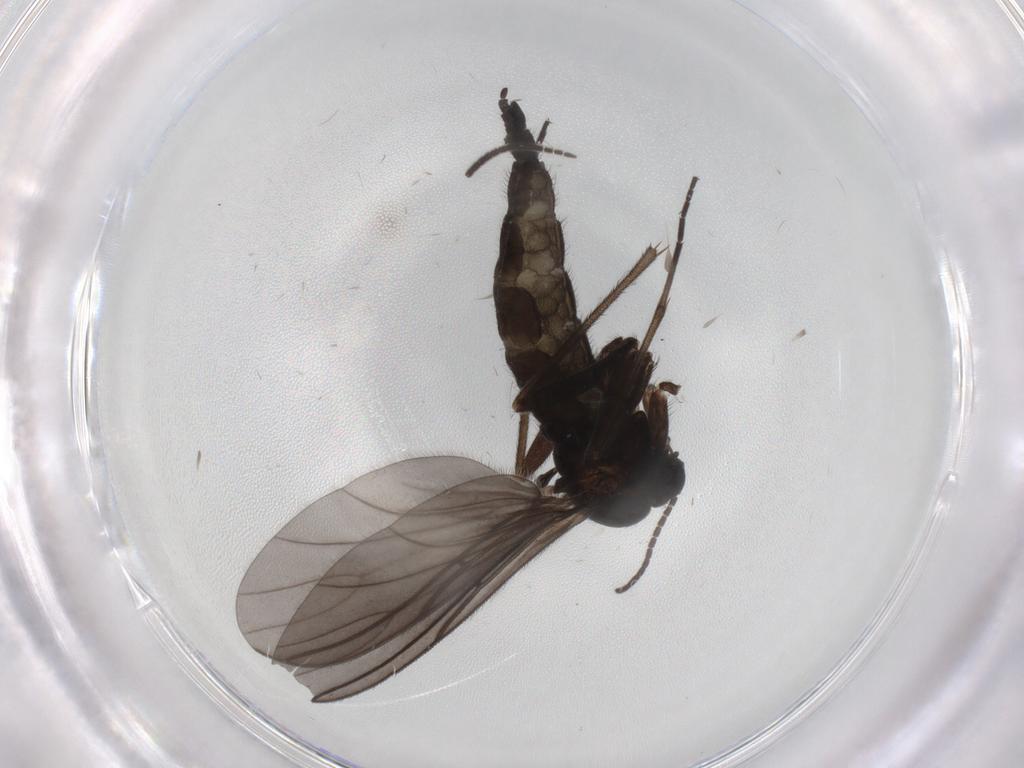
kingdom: Animalia
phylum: Arthropoda
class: Insecta
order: Diptera
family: Sciaridae
